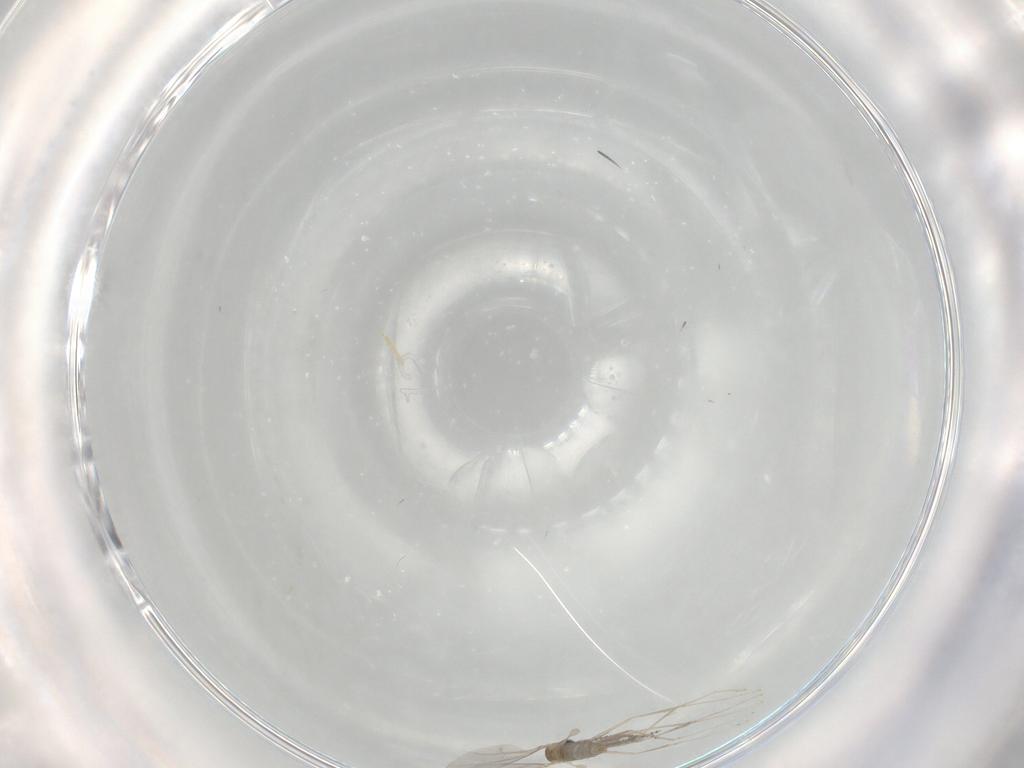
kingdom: Animalia
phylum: Arthropoda
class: Insecta
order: Diptera
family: Cecidomyiidae
